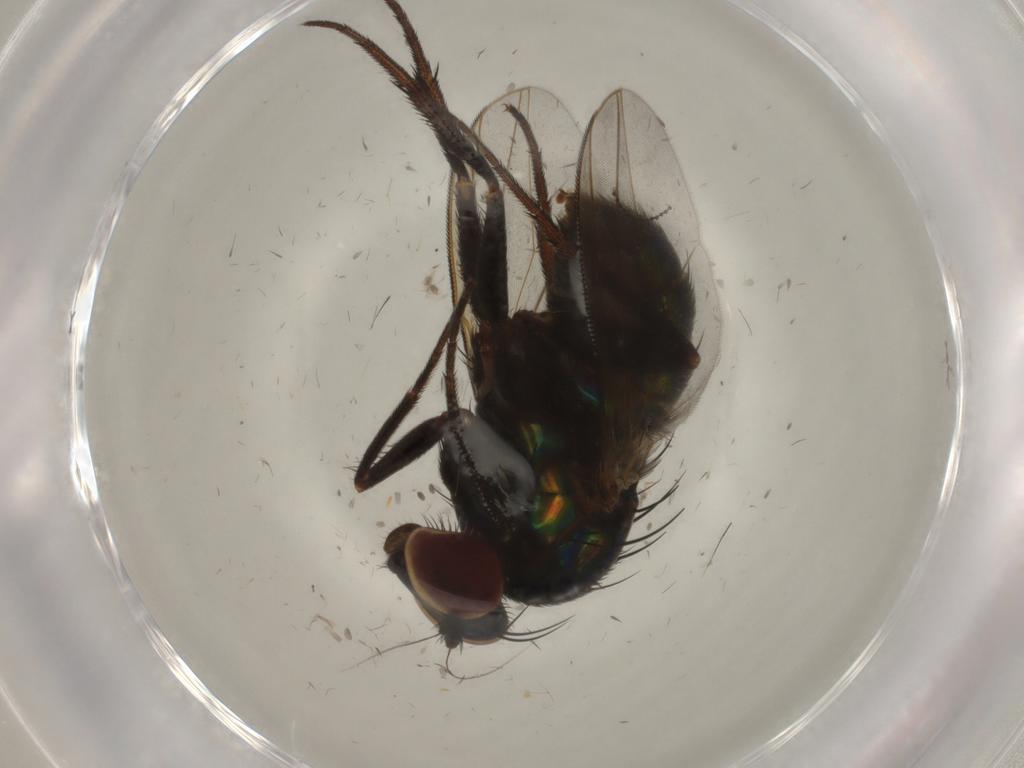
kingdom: Animalia
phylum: Arthropoda
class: Insecta
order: Diptera
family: Dolichopodidae
